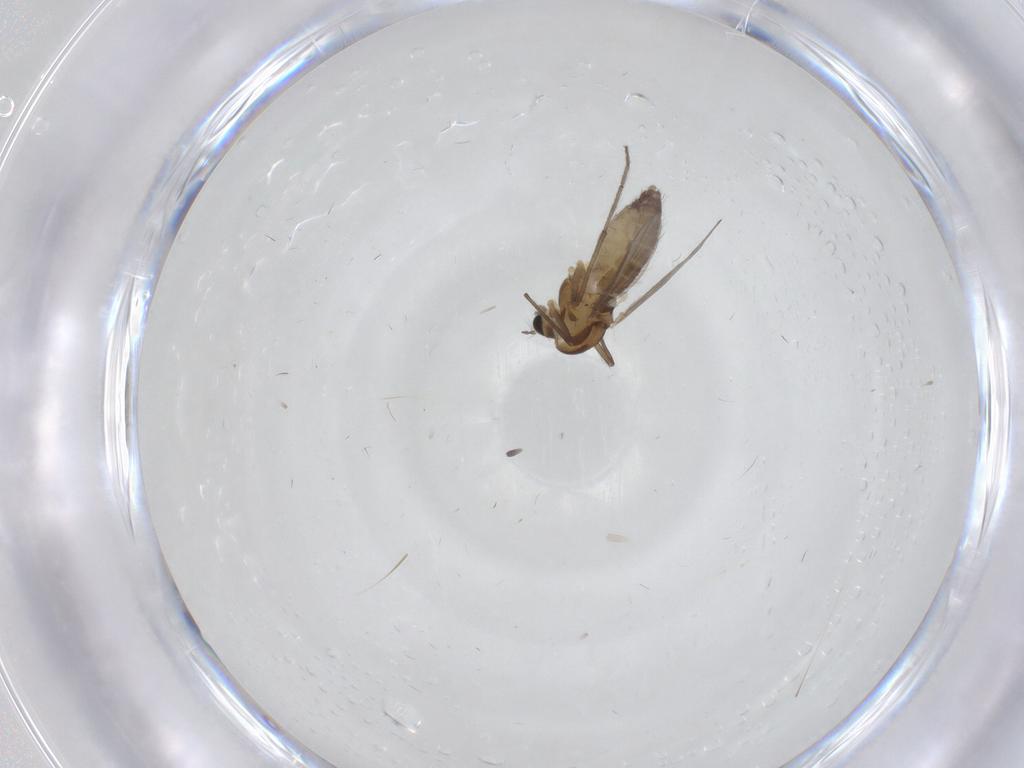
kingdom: Animalia
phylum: Arthropoda
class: Insecta
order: Diptera
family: Chironomidae
